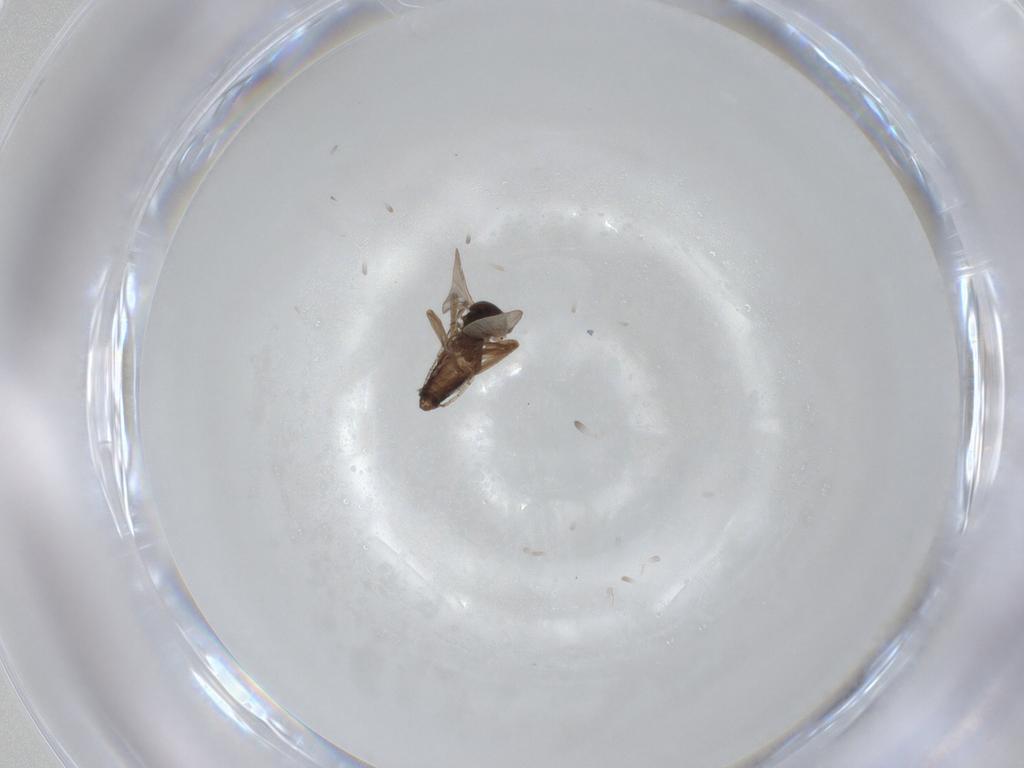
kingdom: Animalia
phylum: Arthropoda
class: Insecta
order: Diptera
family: Ceratopogonidae
